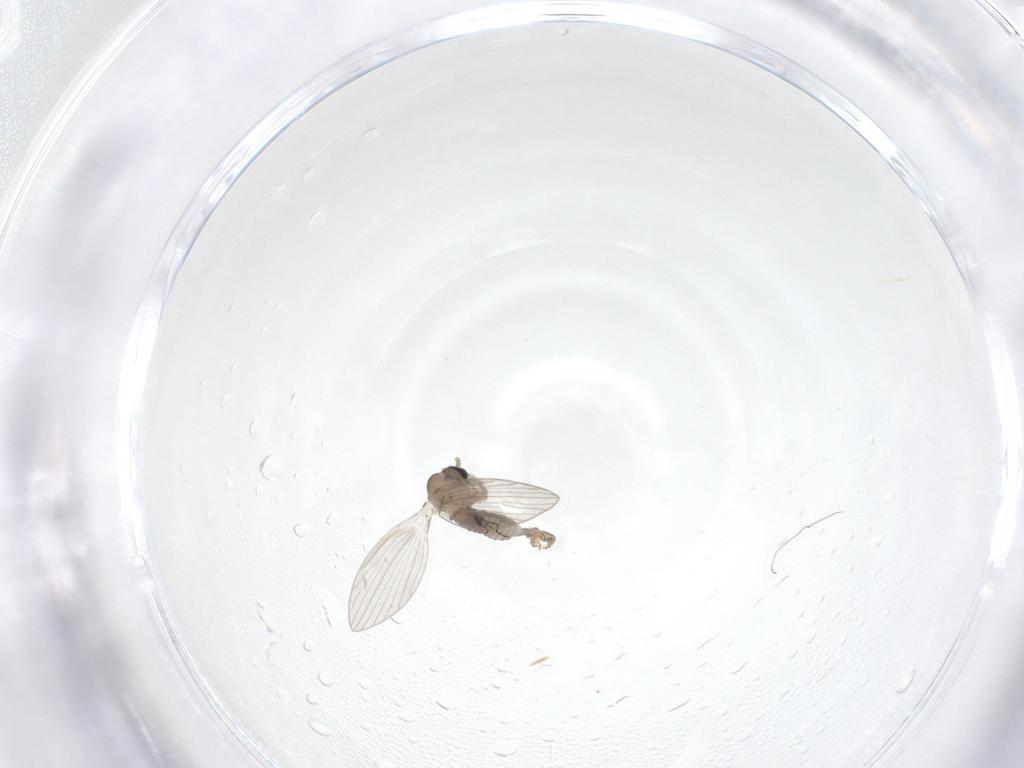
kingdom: Animalia
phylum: Arthropoda
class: Insecta
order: Diptera
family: Psychodidae
